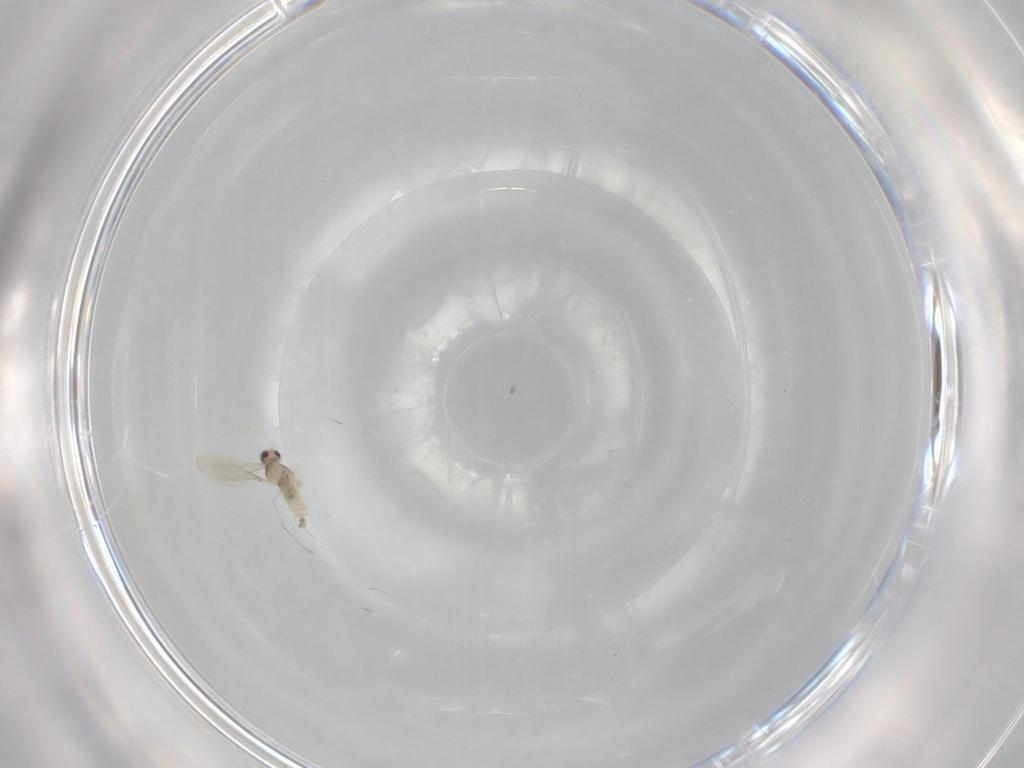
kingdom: Animalia
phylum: Arthropoda
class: Insecta
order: Diptera
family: Cecidomyiidae
